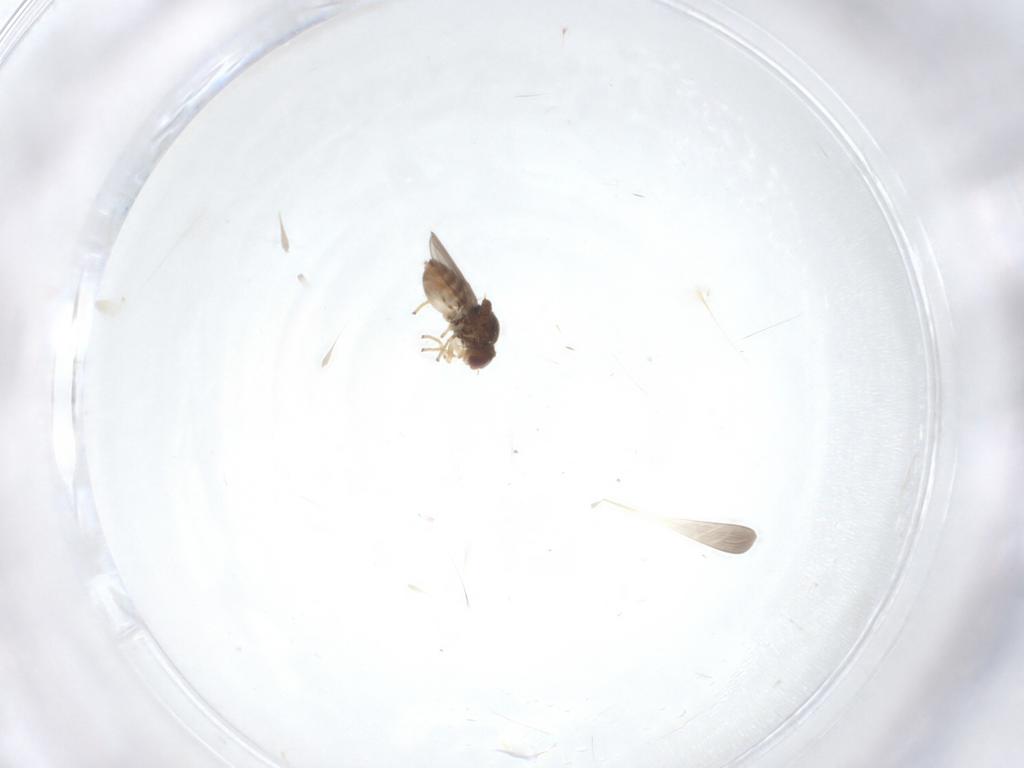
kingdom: Animalia
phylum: Arthropoda
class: Insecta
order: Diptera
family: Chloropidae
